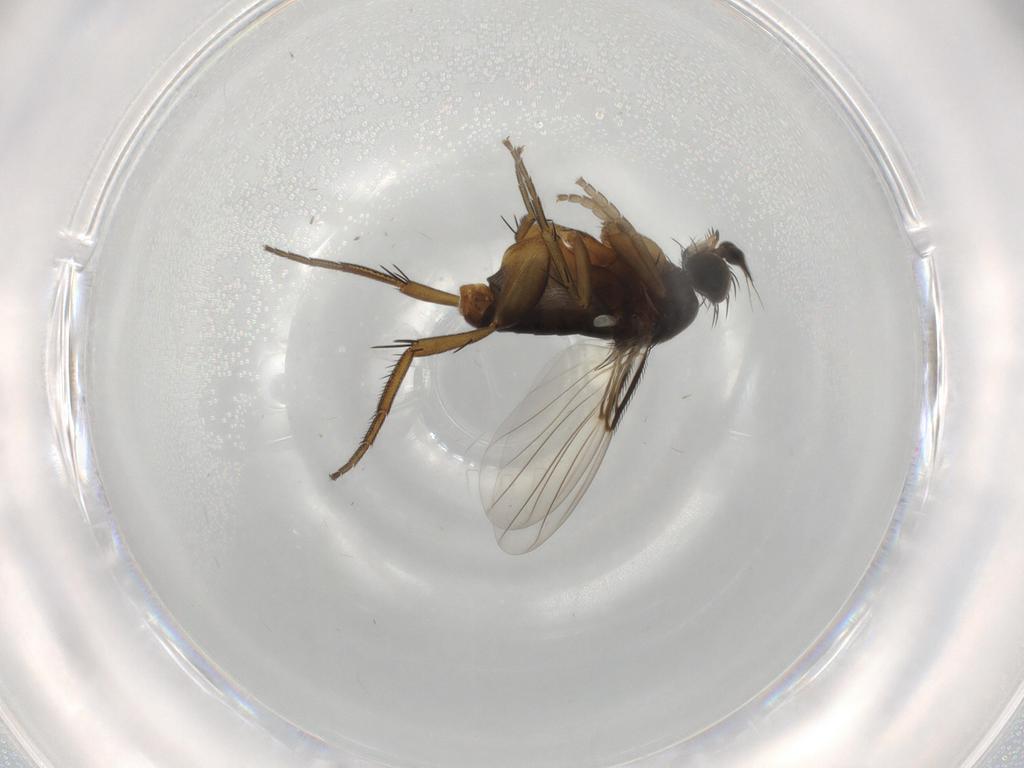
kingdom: Animalia
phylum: Arthropoda
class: Insecta
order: Diptera
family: Phoridae
